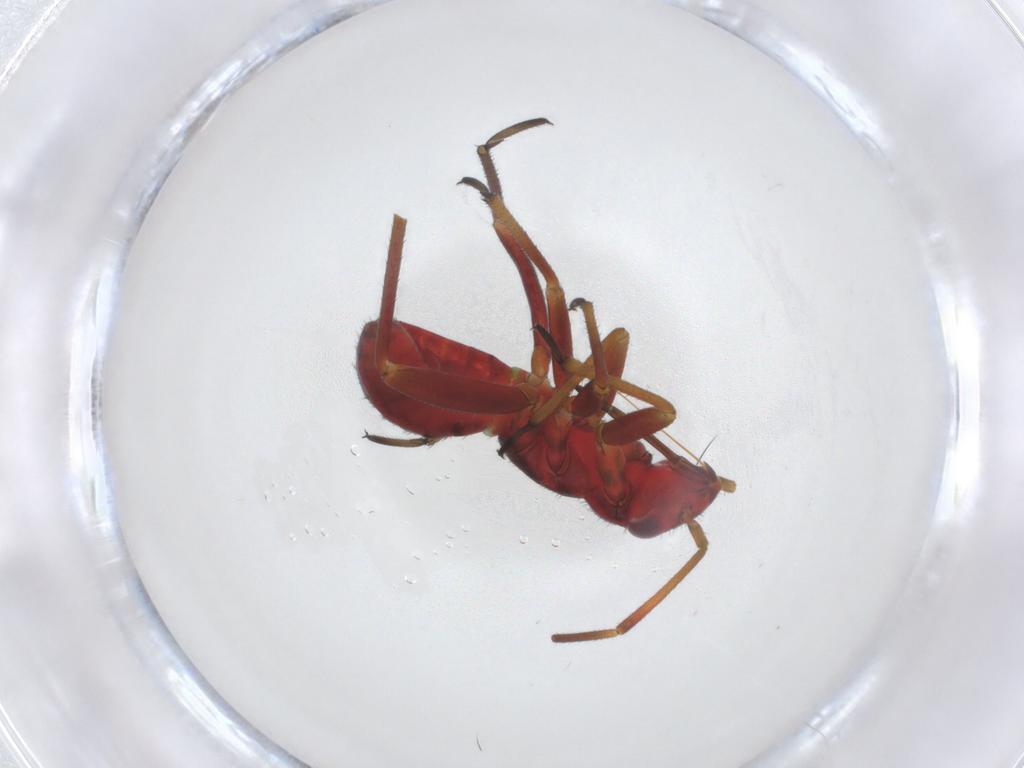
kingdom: Animalia
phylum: Arthropoda
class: Insecta
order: Hemiptera
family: Miridae
